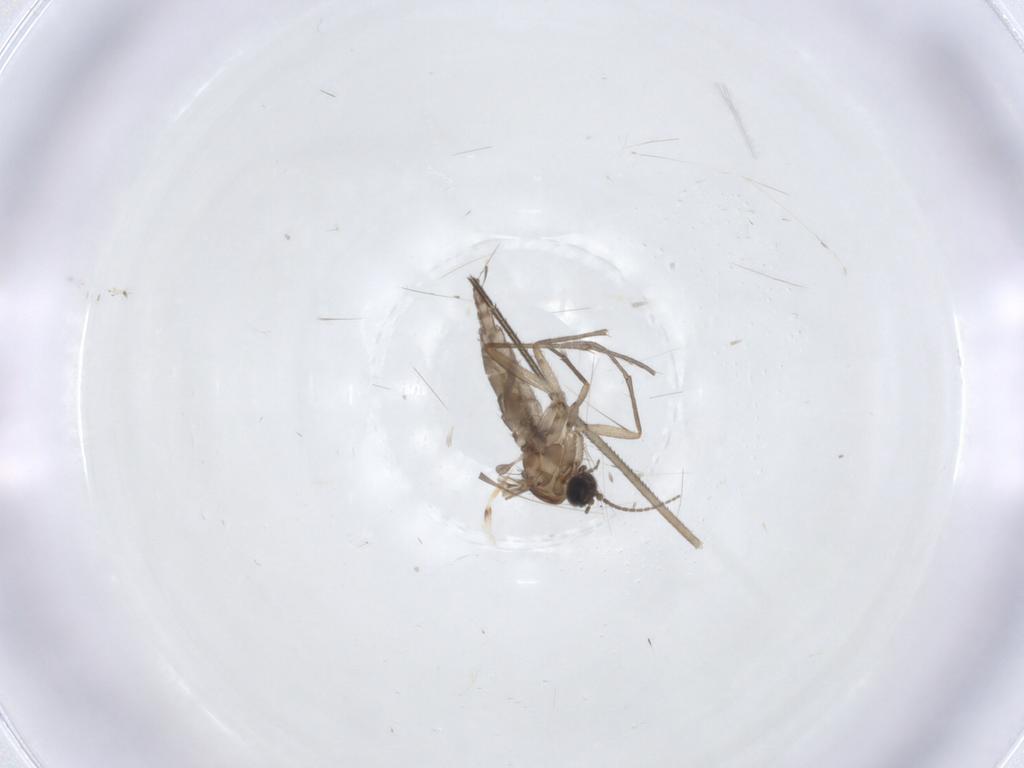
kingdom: Animalia
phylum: Arthropoda
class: Insecta
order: Diptera
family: Sciaridae
